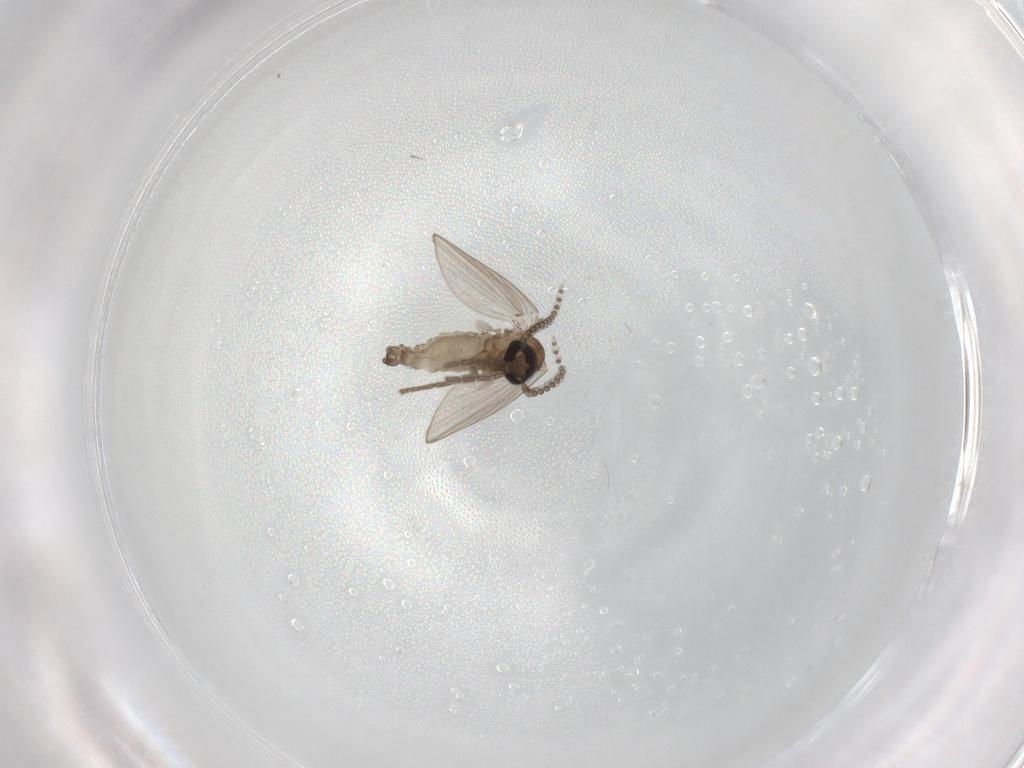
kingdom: Animalia
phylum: Arthropoda
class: Insecta
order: Diptera
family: Psychodidae
